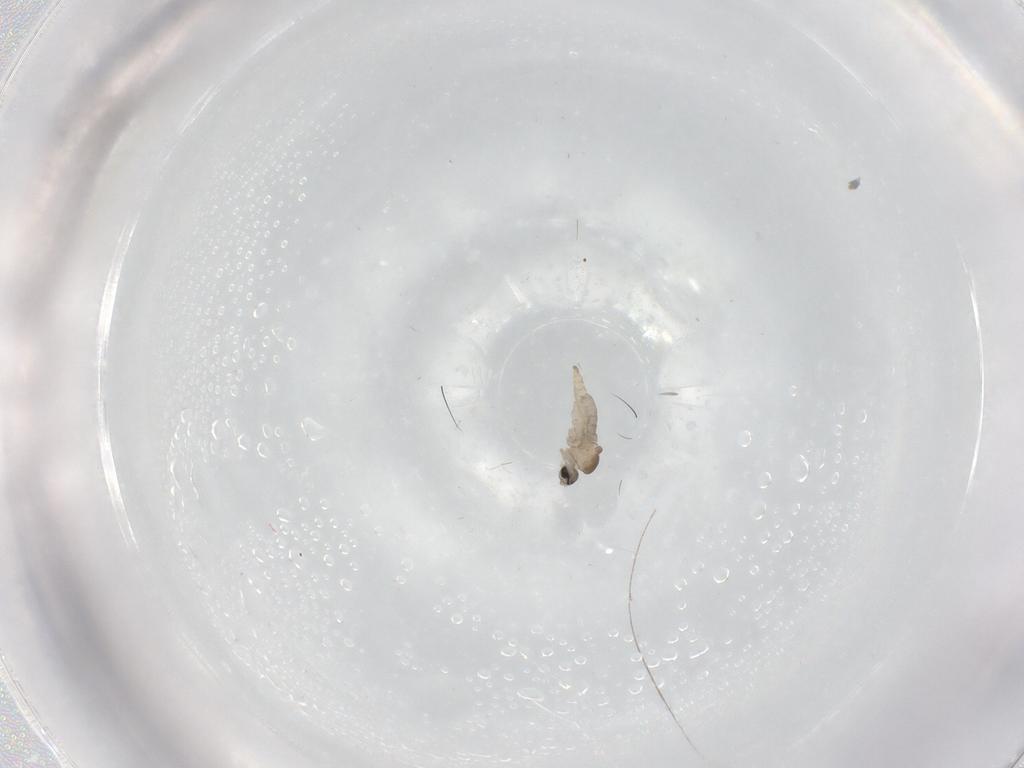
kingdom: Animalia
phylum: Arthropoda
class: Insecta
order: Diptera
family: Cecidomyiidae
